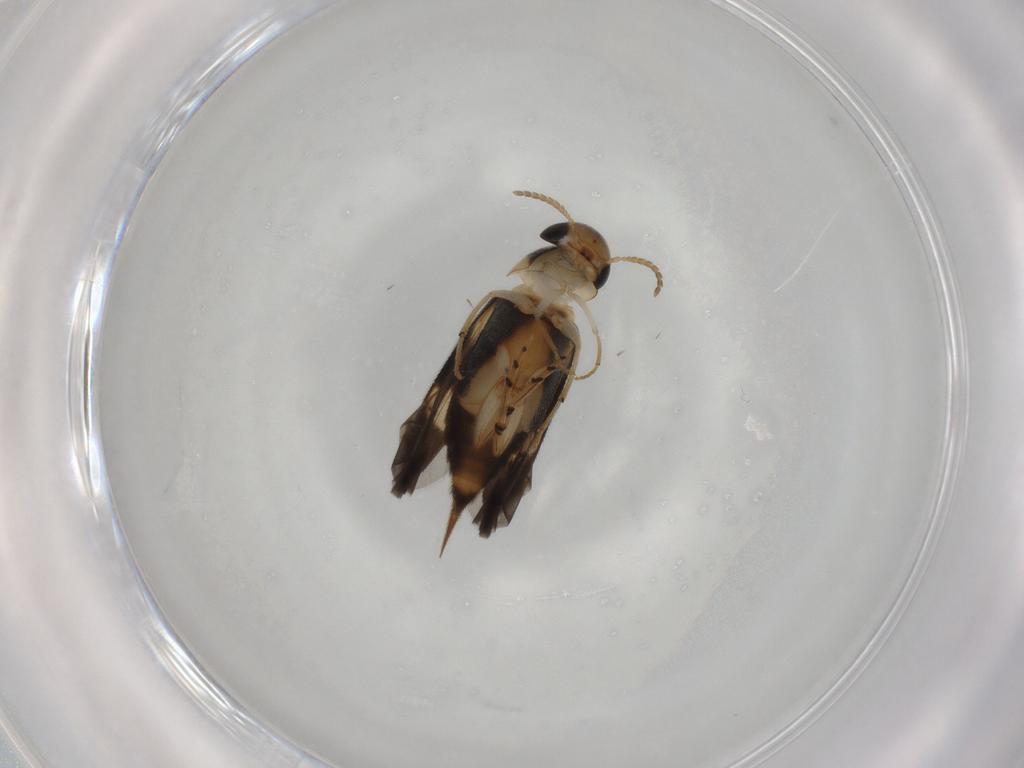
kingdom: Animalia
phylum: Arthropoda
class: Insecta
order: Coleoptera
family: Mordellidae
